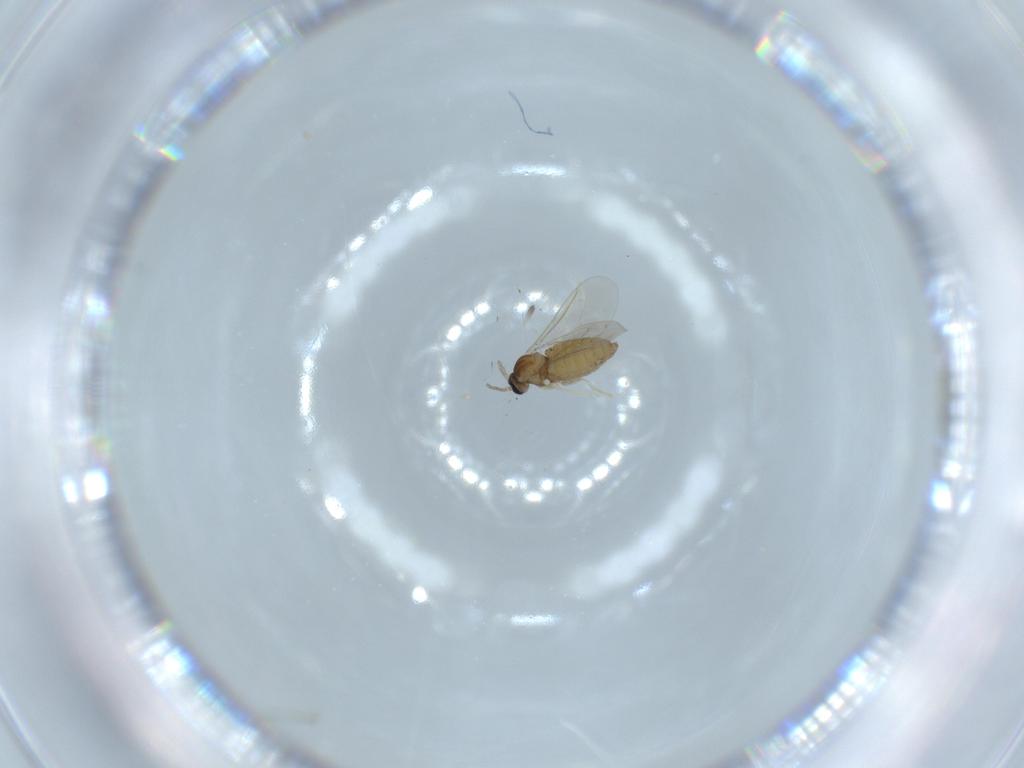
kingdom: Animalia
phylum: Arthropoda
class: Insecta
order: Diptera
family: Cecidomyiidae
